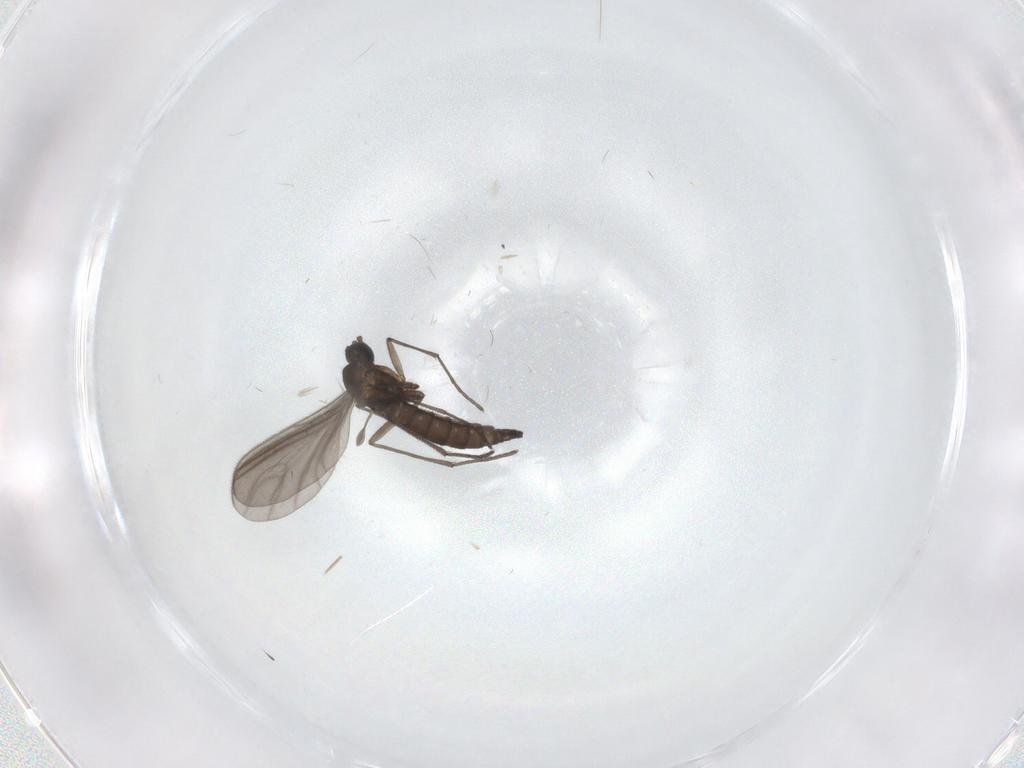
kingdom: Animalia
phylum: Arthropoda
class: Insecta
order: Diptera
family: Sciaridae
